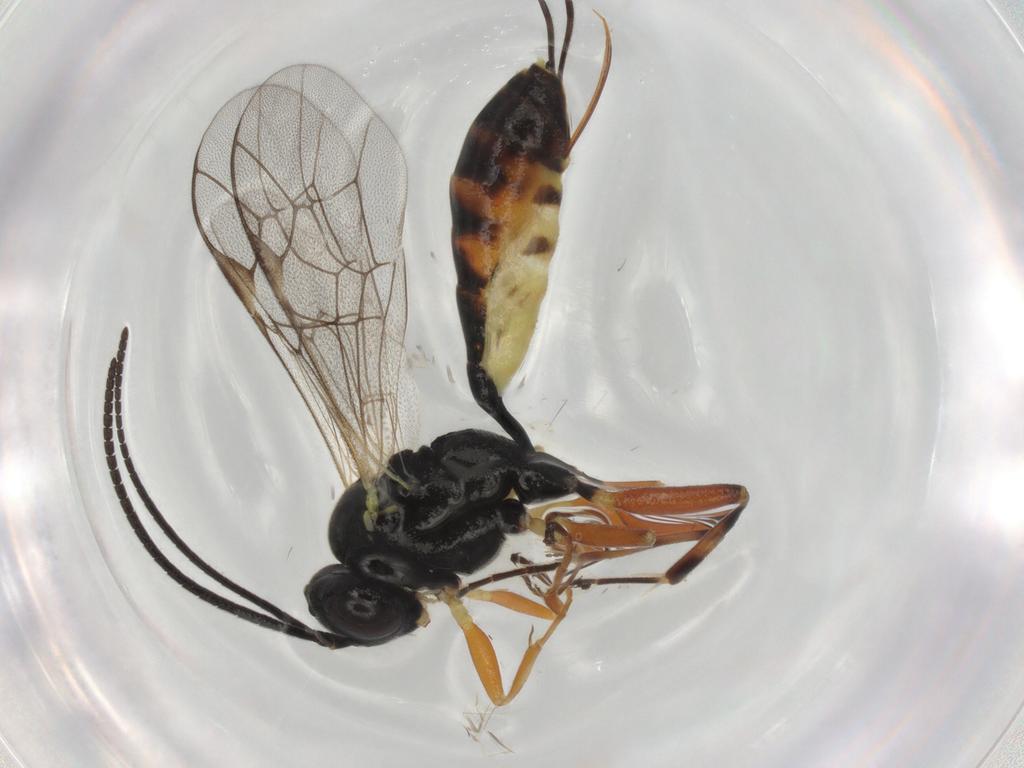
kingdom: Animalia
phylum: Arthropoda
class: Insecta
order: Hymenoptera
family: Ichneumonidae
